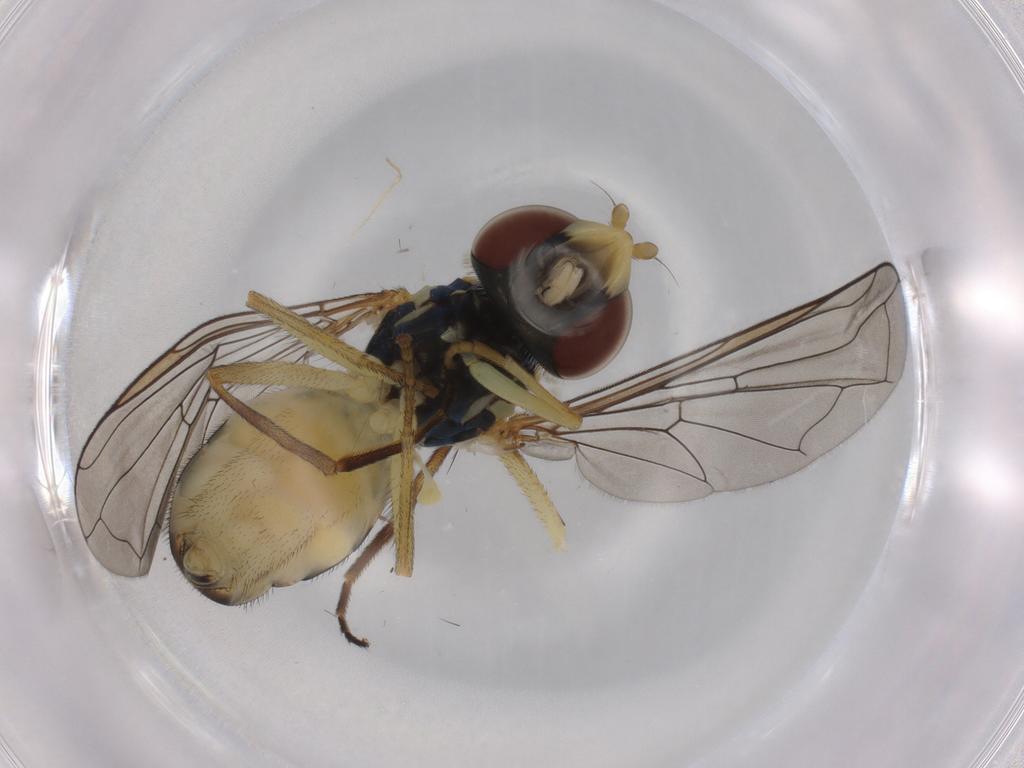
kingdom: Animalia
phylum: Arthropoda
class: Insecta
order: Diptera
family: Syrphidae
